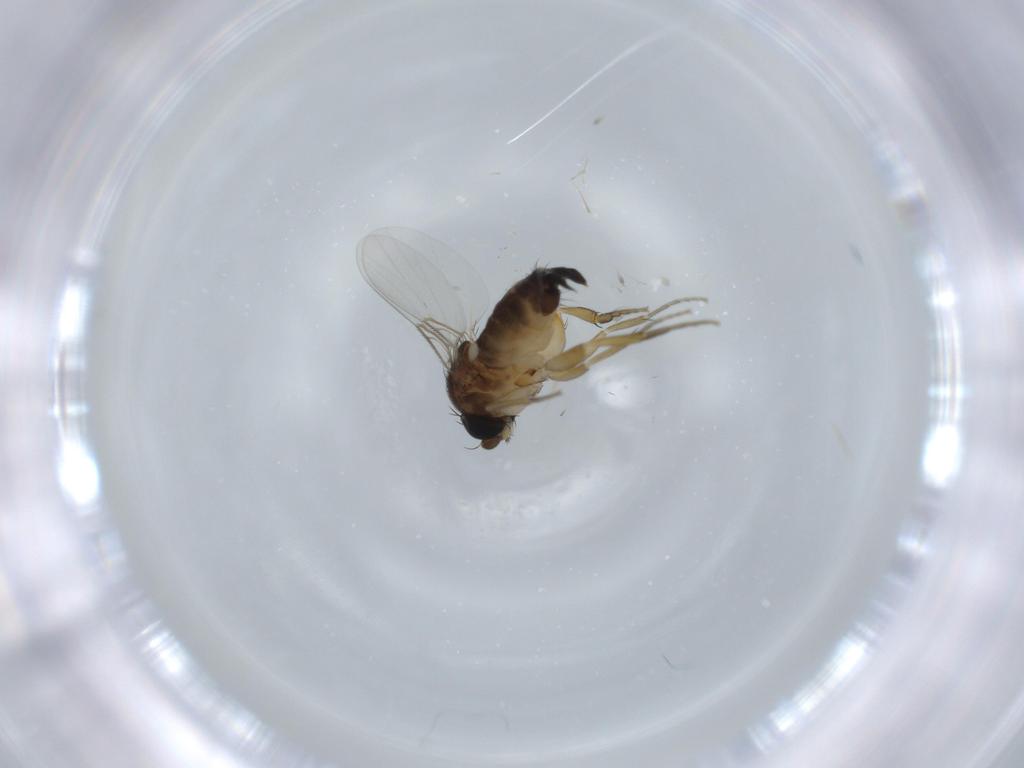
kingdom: Animalia
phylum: Arthropoda
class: Insecta
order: Diptera
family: Phoridae
